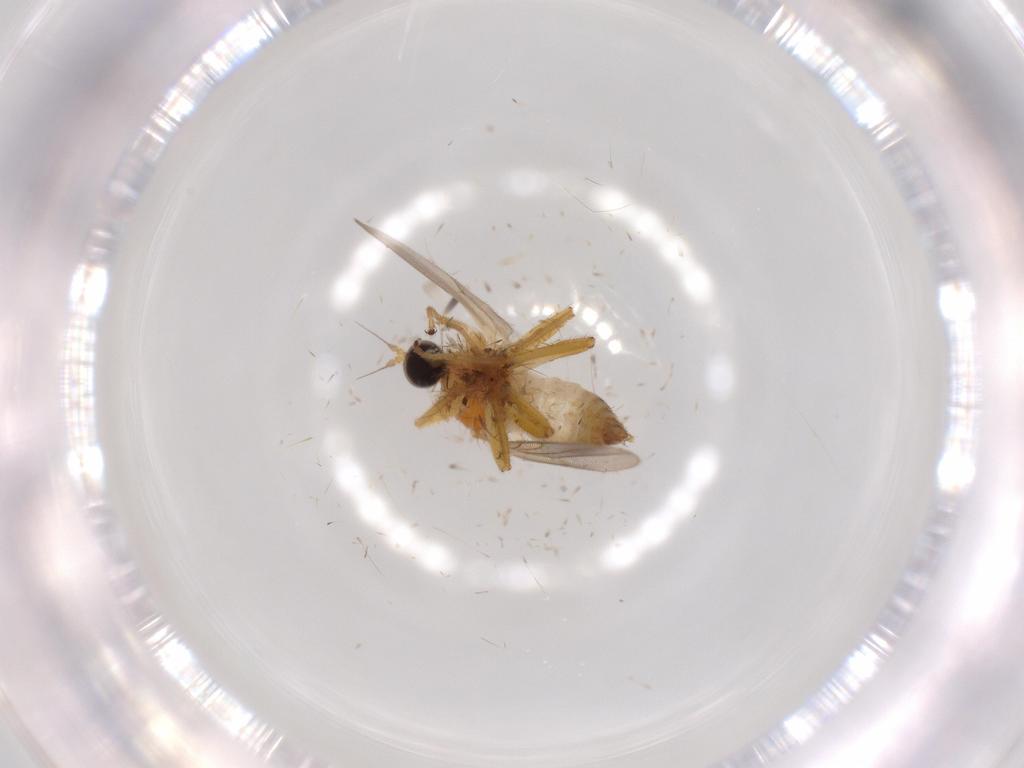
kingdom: Animalia
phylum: Arthropoda
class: Insecta
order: Diptera
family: Hybotidae
